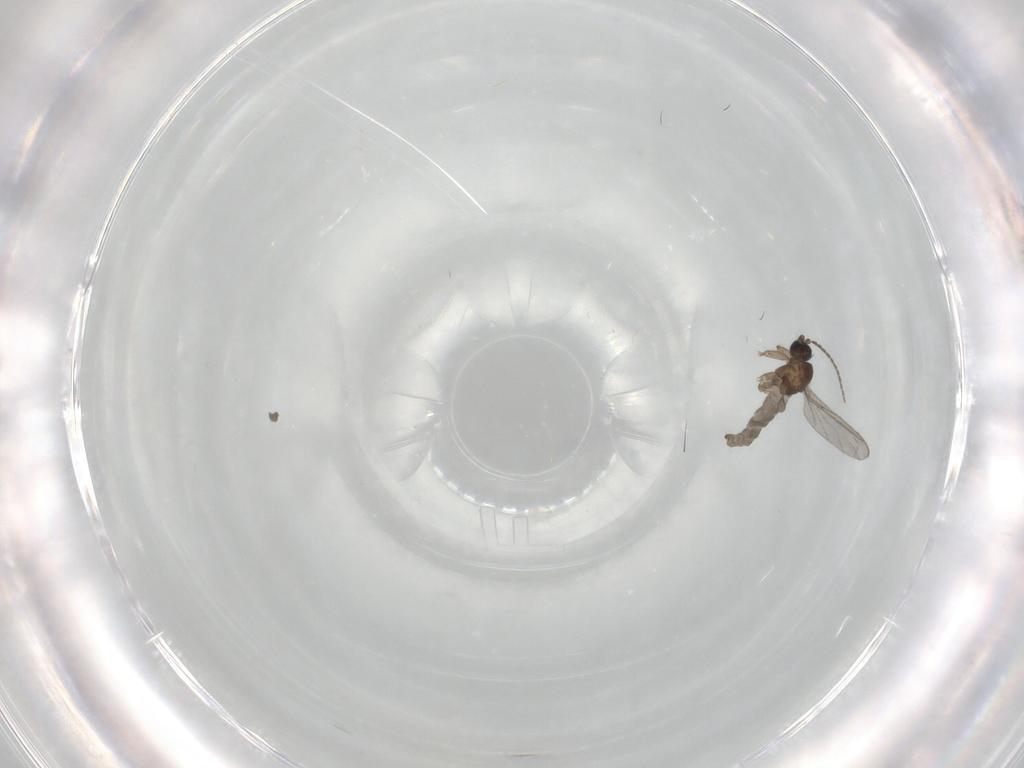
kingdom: Animalia
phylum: Arthropoda
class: Insecta
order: Diptera
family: Sciaridae
